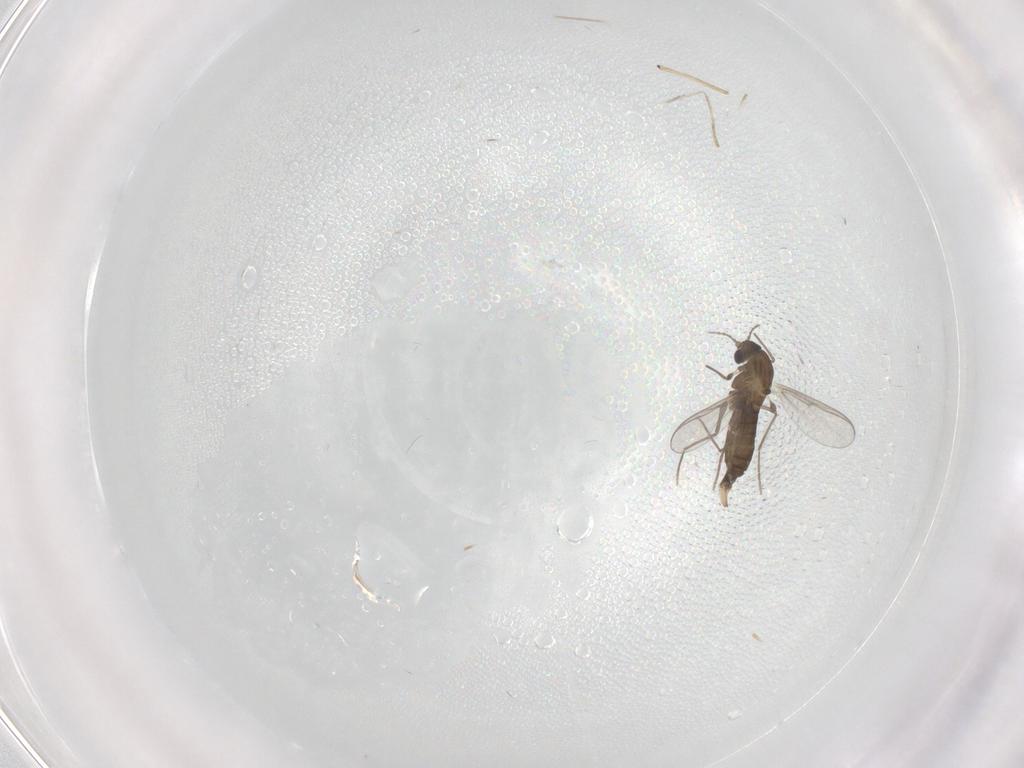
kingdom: Animalia
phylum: Arthropoda
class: Insecta
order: Diptera
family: Chironomidae
